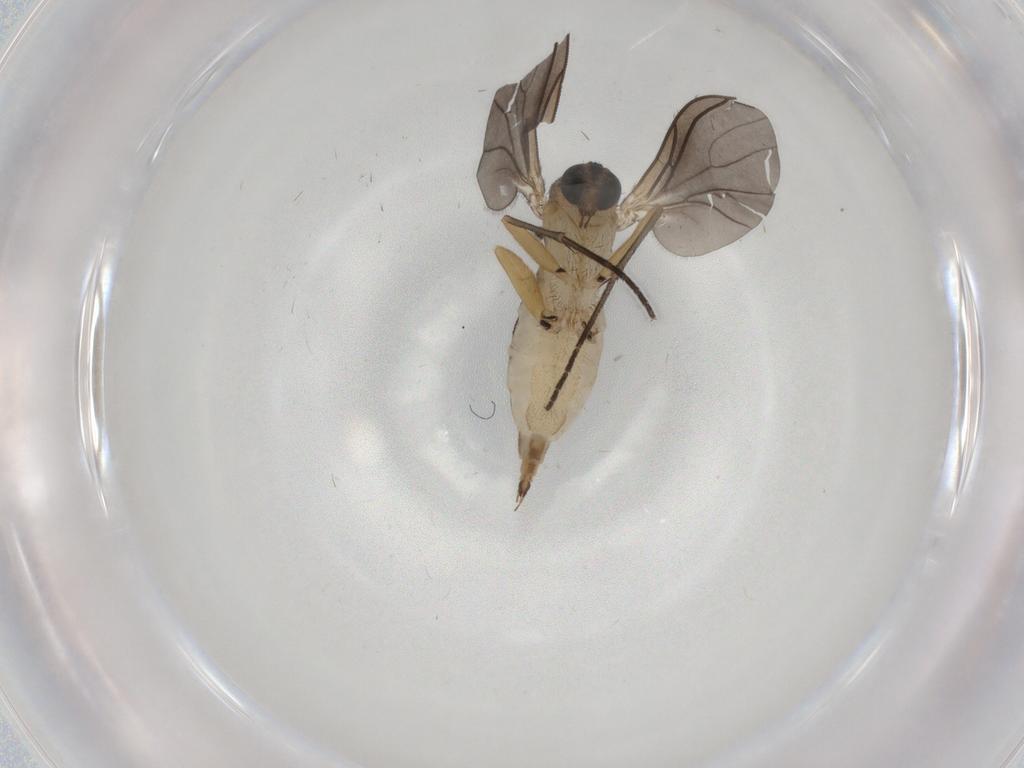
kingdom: Animalia
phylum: Arthropoda
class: Insecta
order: Diptera
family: Sciaridae
